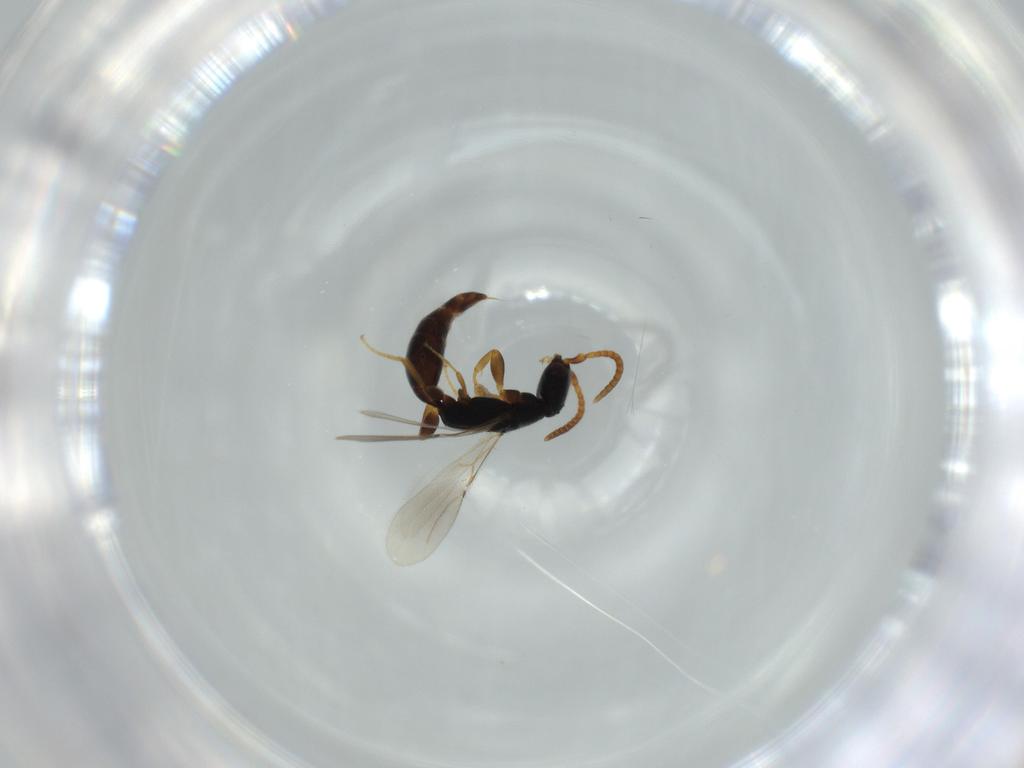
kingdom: Animalia
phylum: Arthropoda
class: Insecta
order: Hymenoptera
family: Bethylidae
